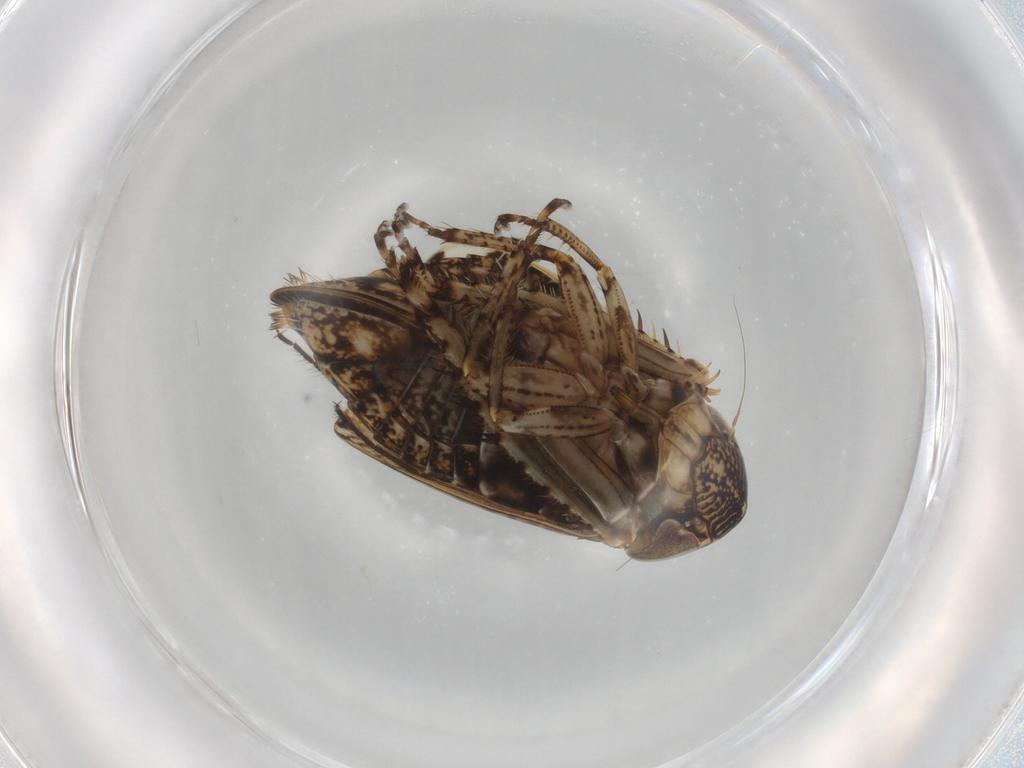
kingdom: Animalia
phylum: Arthropoda
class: Insecta
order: Hemiptera
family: Cicadellidae
